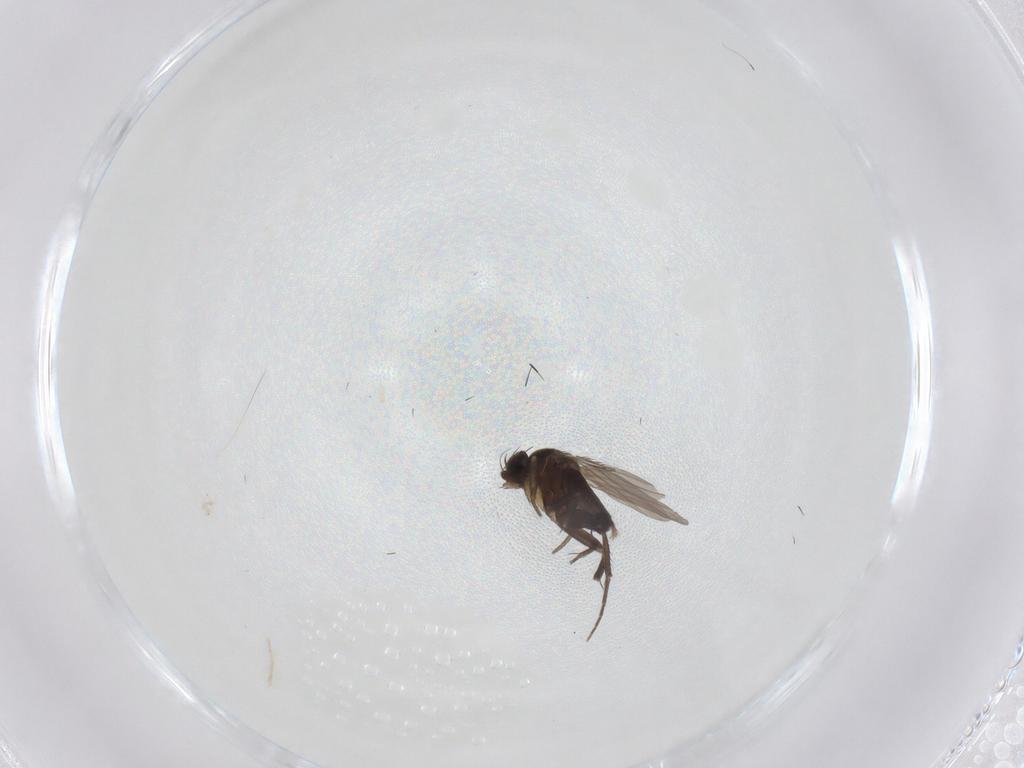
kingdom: Animalia
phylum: Arthropoda
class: Insecta
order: Diptera
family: Phoridae
